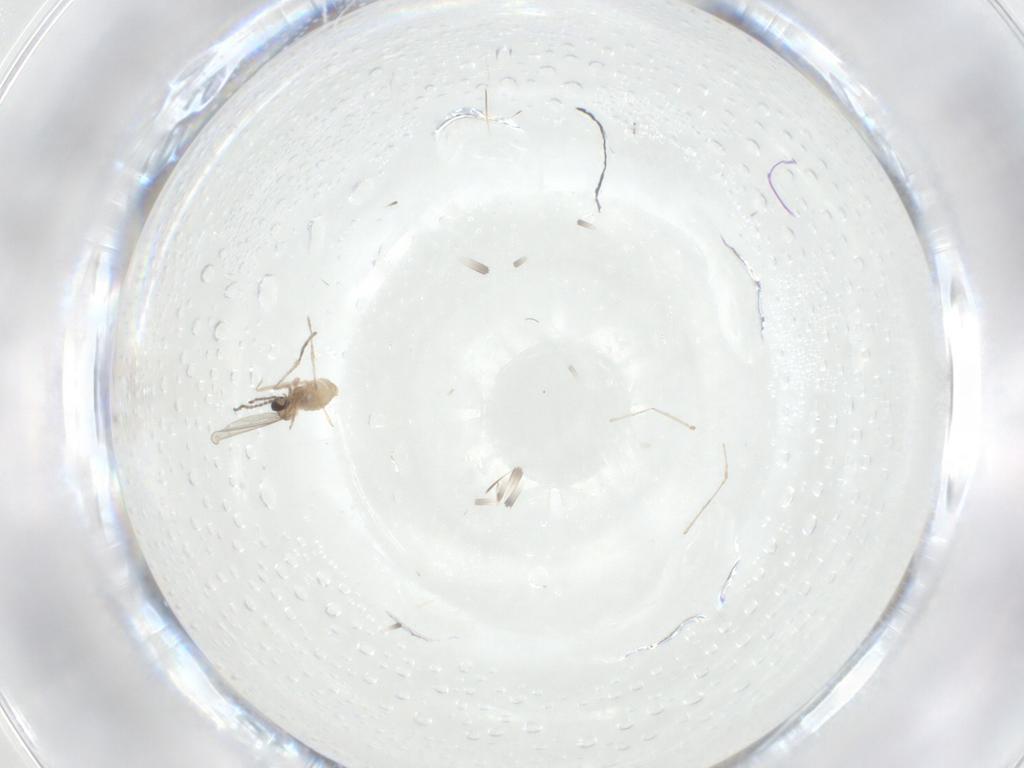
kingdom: Animalia
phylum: Arthropoda
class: Insecta
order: Diptera
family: Cecidomyiidae
